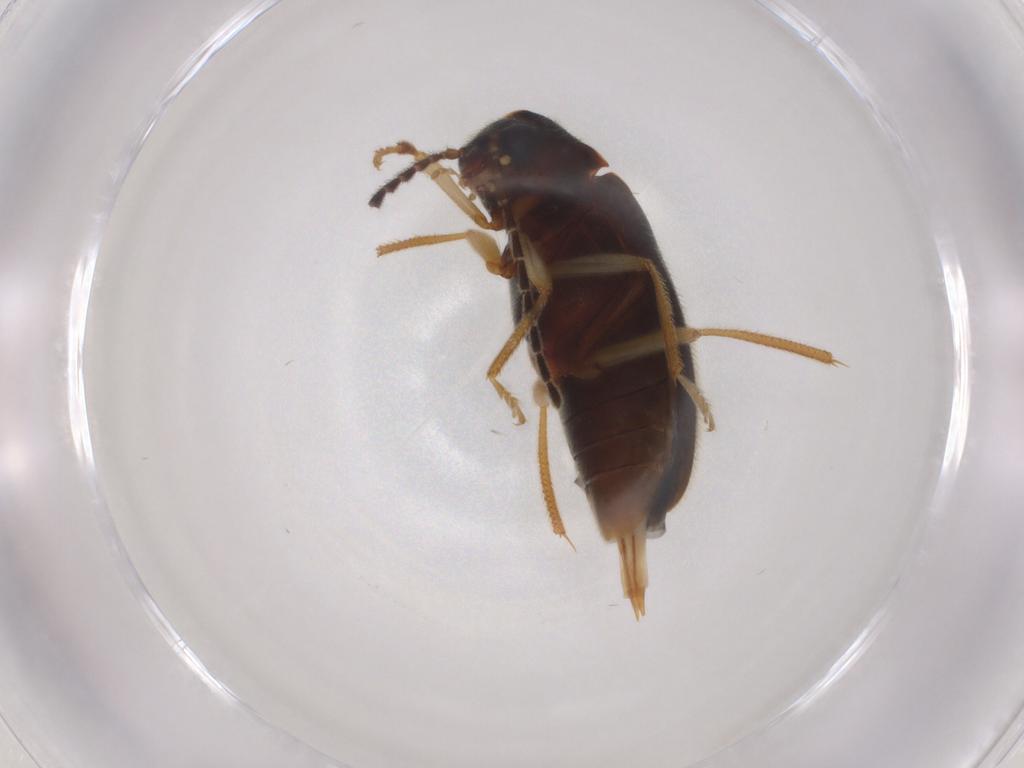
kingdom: Animalia
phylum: Arthropoda
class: Insecta
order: Coleoptera
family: Ptilodactylidae
